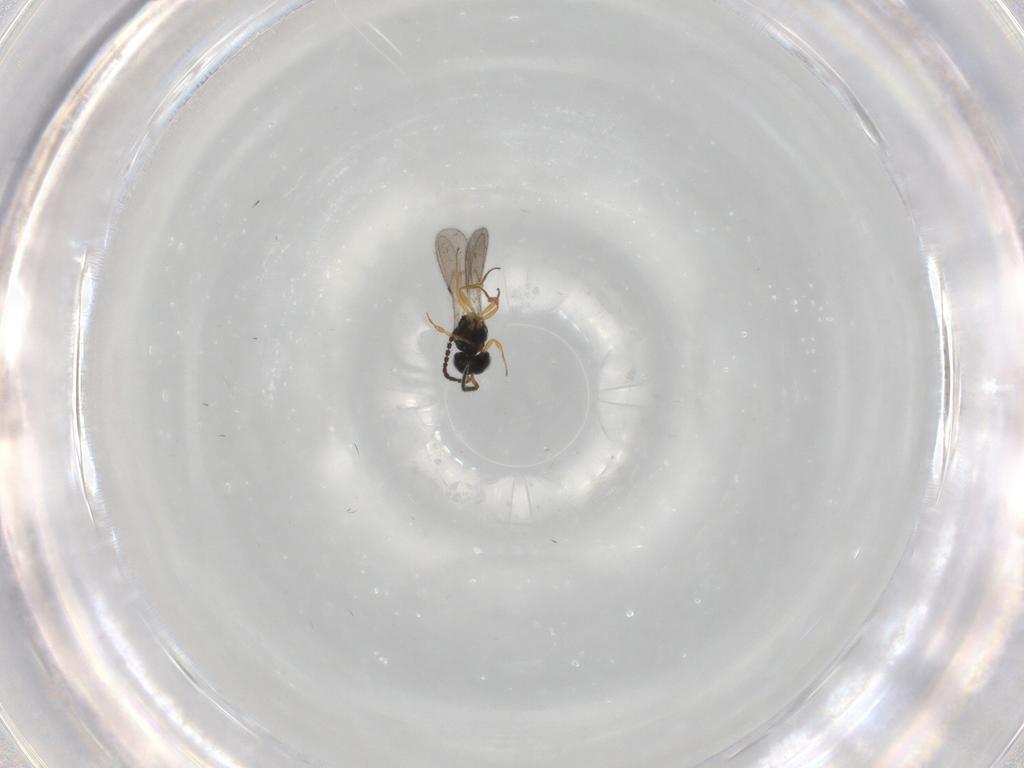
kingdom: Animalia
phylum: Arthropoda
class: Insecta
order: Hymenoptera
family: Scelionidae
